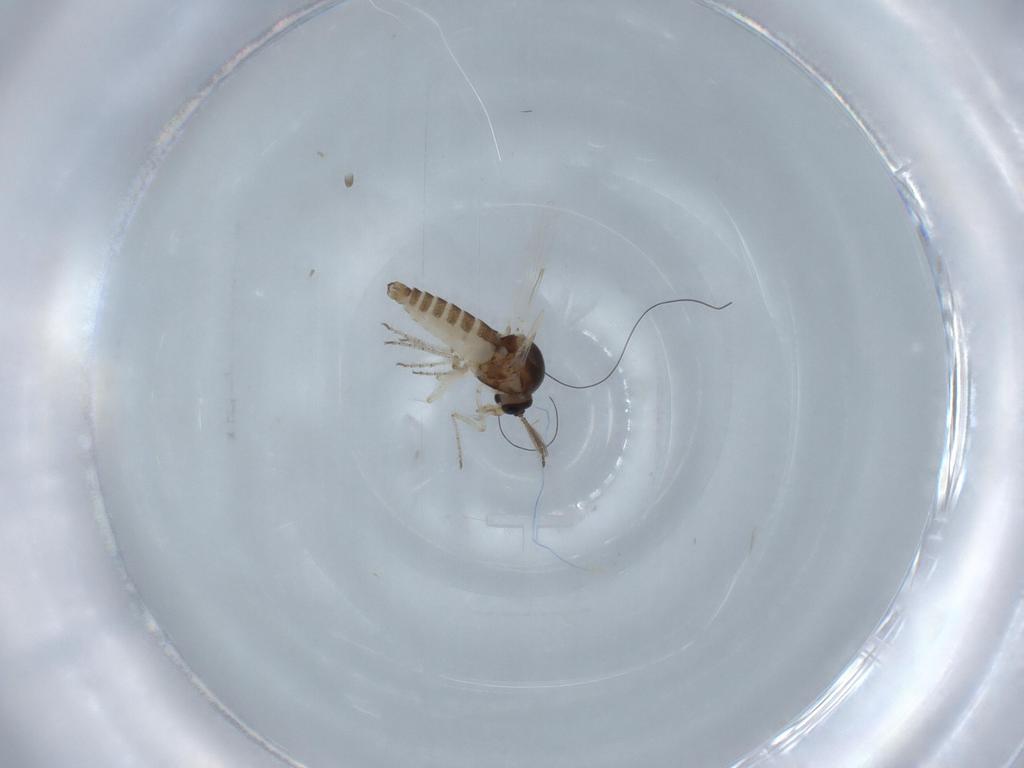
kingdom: Animalia
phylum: Arthropoda
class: Insecta
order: Diptera
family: Ceratopogonidae
